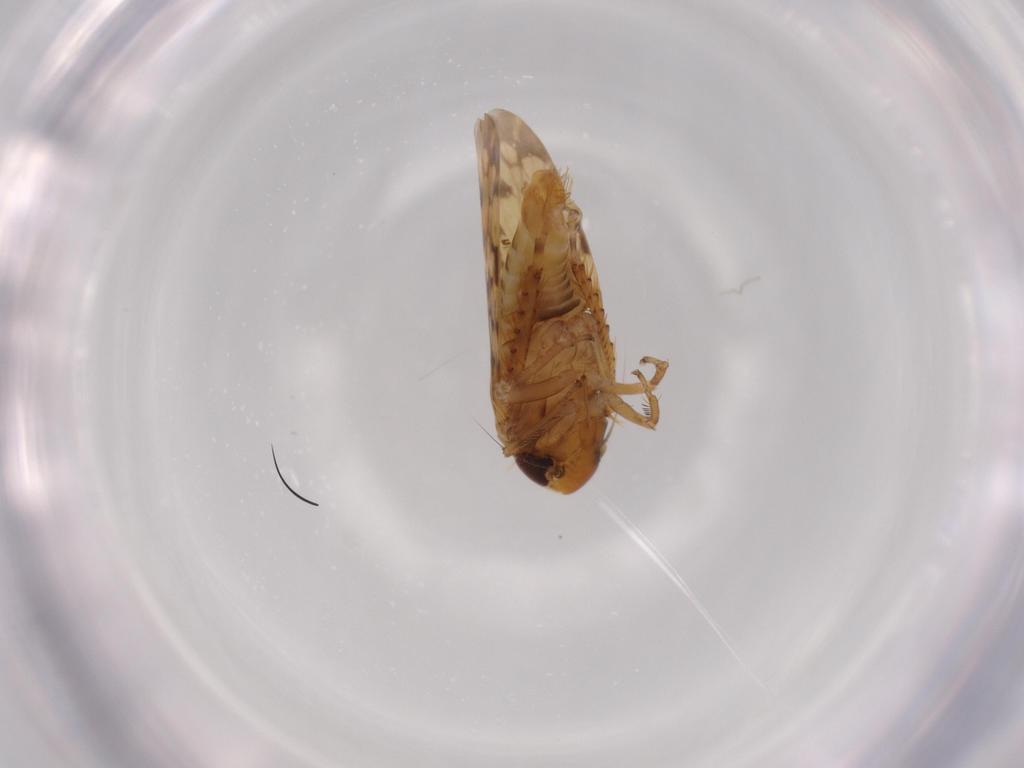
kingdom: Animalia
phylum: Arthropoda
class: Insecta
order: Hemiptera
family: Cicadellidae
